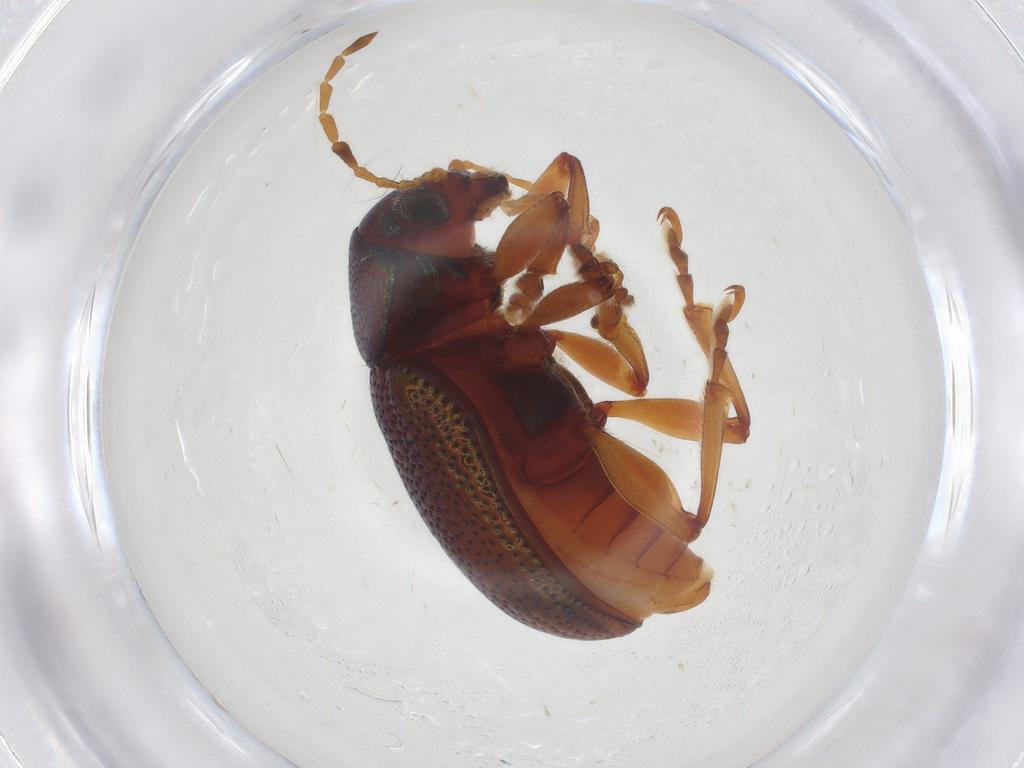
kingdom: Animalia
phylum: Arthropoda
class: Insecta
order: Coleoptera
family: Chrysomelidae
